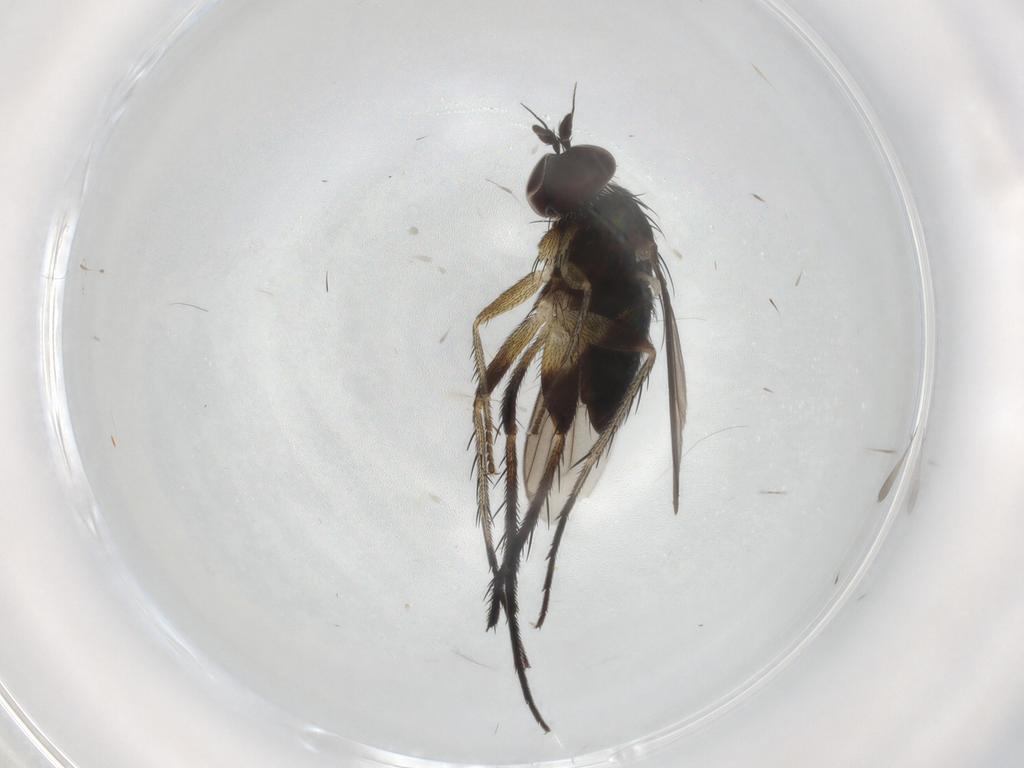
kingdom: Animalia
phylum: Arthropoda
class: Insecta
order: Diptera
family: Dolichopodidae
